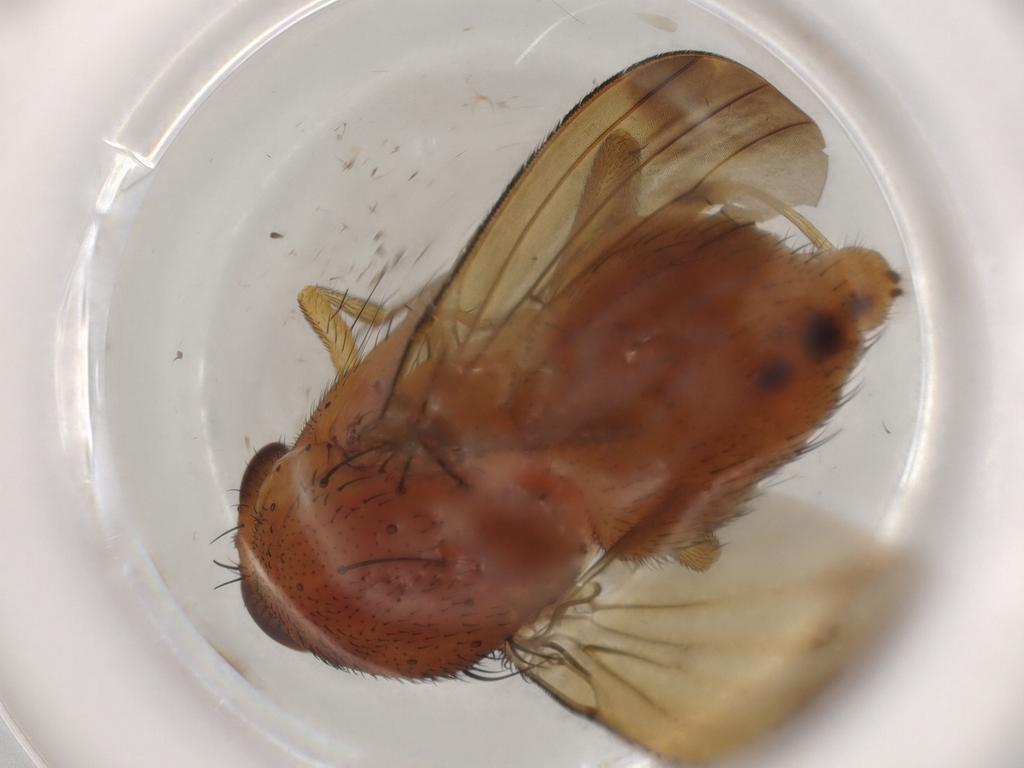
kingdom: Animalia
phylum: Arthropoda
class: Insecta
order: Diptera
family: Lauxaniidae
